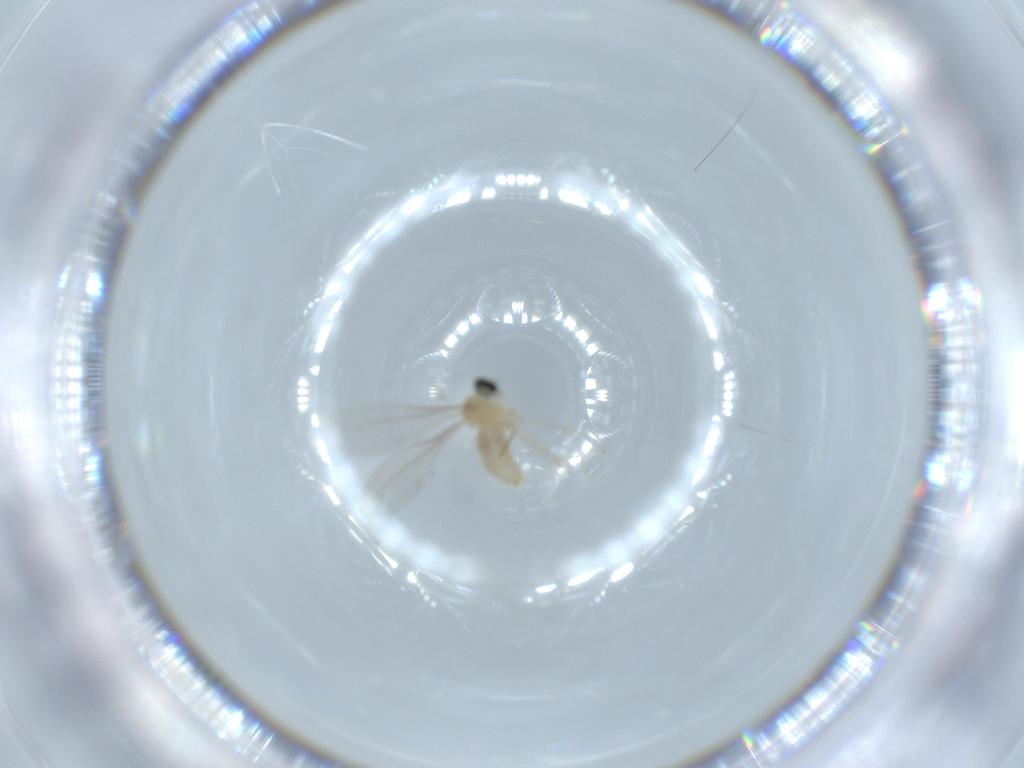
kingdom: Animalia
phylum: Arthropoda
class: Insecta
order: Diptera
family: Cecidomyiidae
